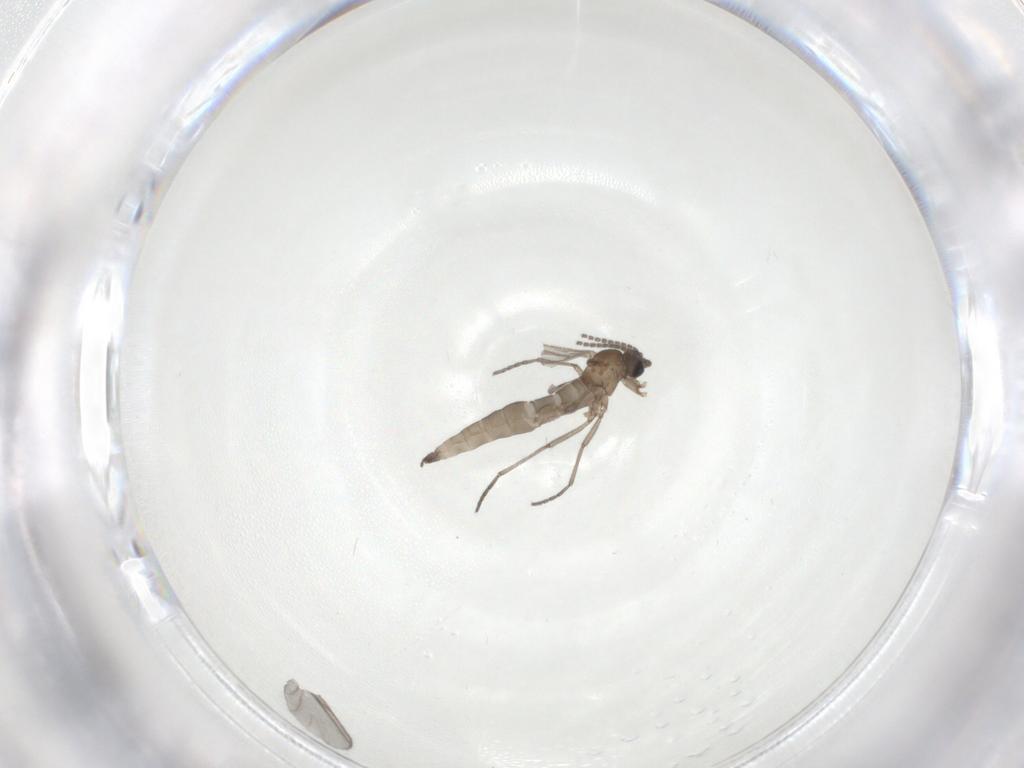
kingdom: Animalia
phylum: Arthropoda
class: Insecta
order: Diptera
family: Sciaridae
